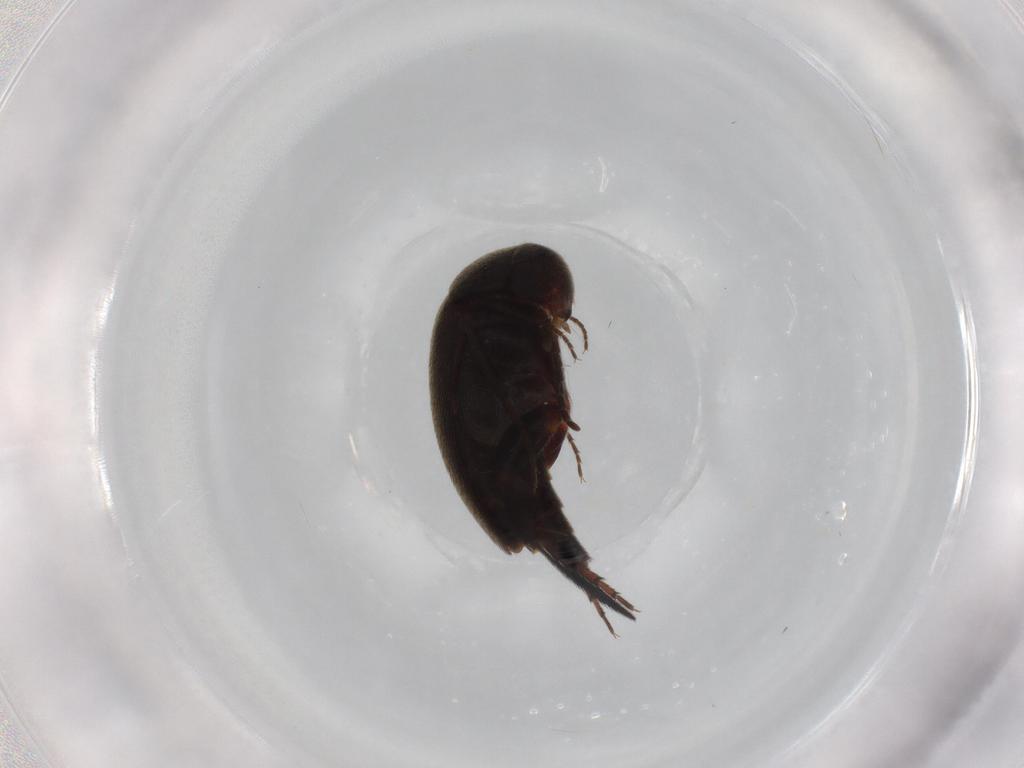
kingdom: Animalia
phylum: Arthropoda
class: Insecta
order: Coleoptera
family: Mordellidae
